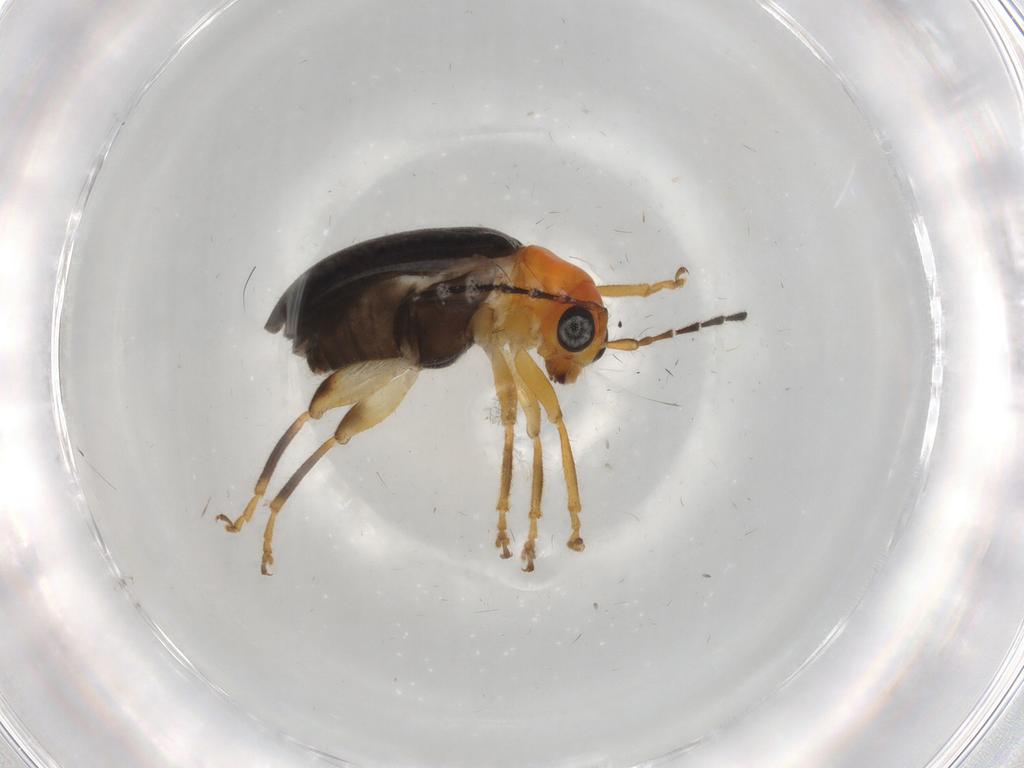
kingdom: Animalia
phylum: Arthropoda
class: Insecta
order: Coleoptera
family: Chrysomelidae
